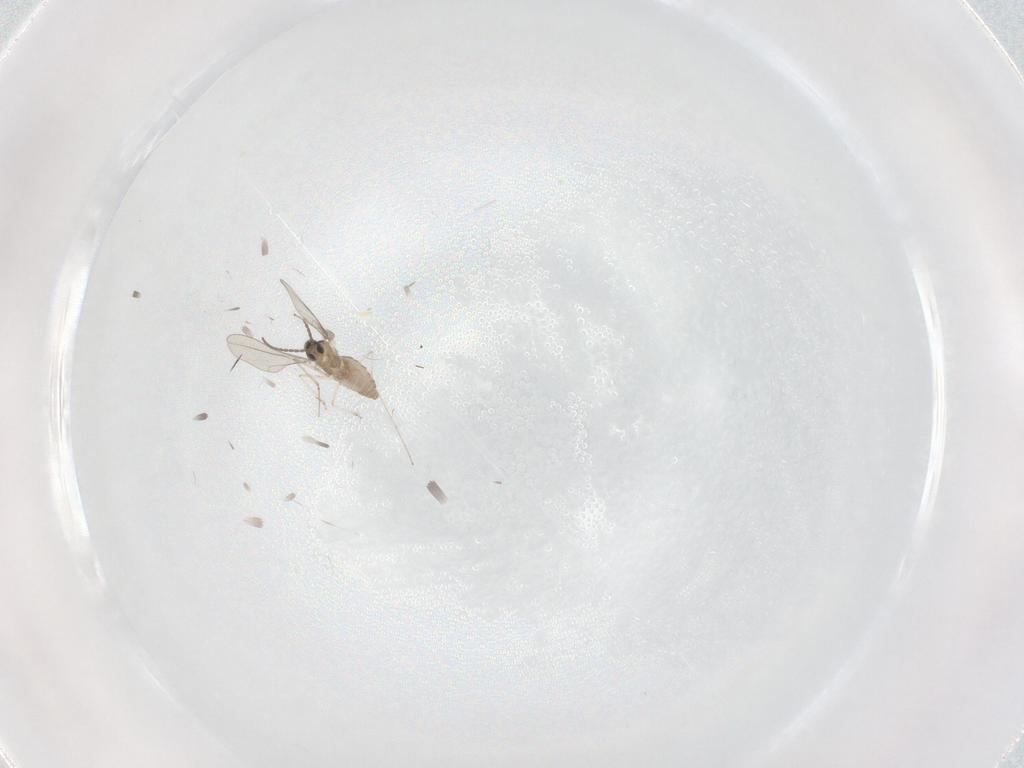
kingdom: Animalia
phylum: Arthropoda
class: Insecta
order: Diptera
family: Cecidomyiidae
